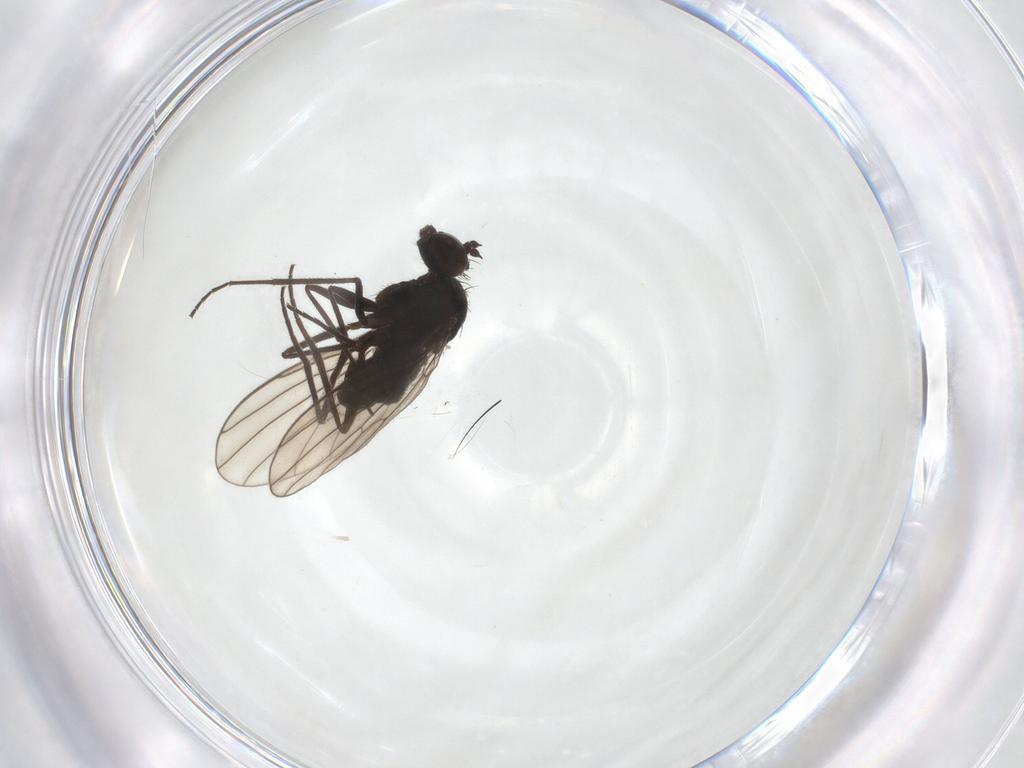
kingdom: Animalia
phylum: Arthropoda
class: Insecta
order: Diptera
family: Dolichopodidae
